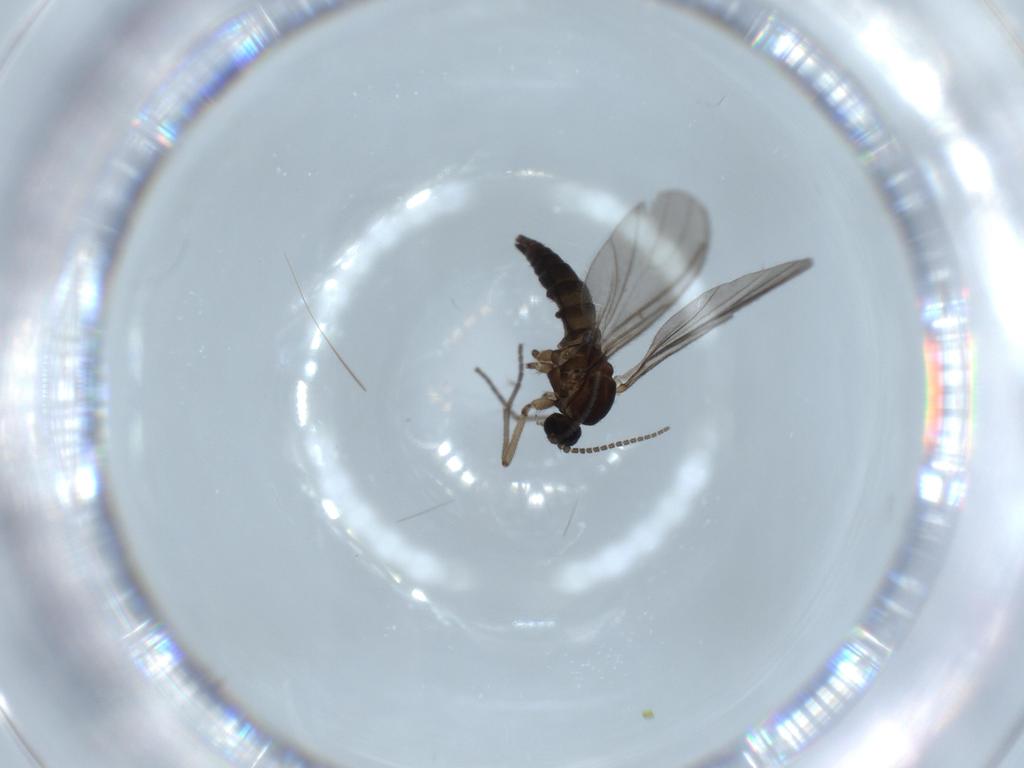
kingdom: Animalia
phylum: Arthropoda
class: Insecta
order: Diptera
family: Sciaridae
